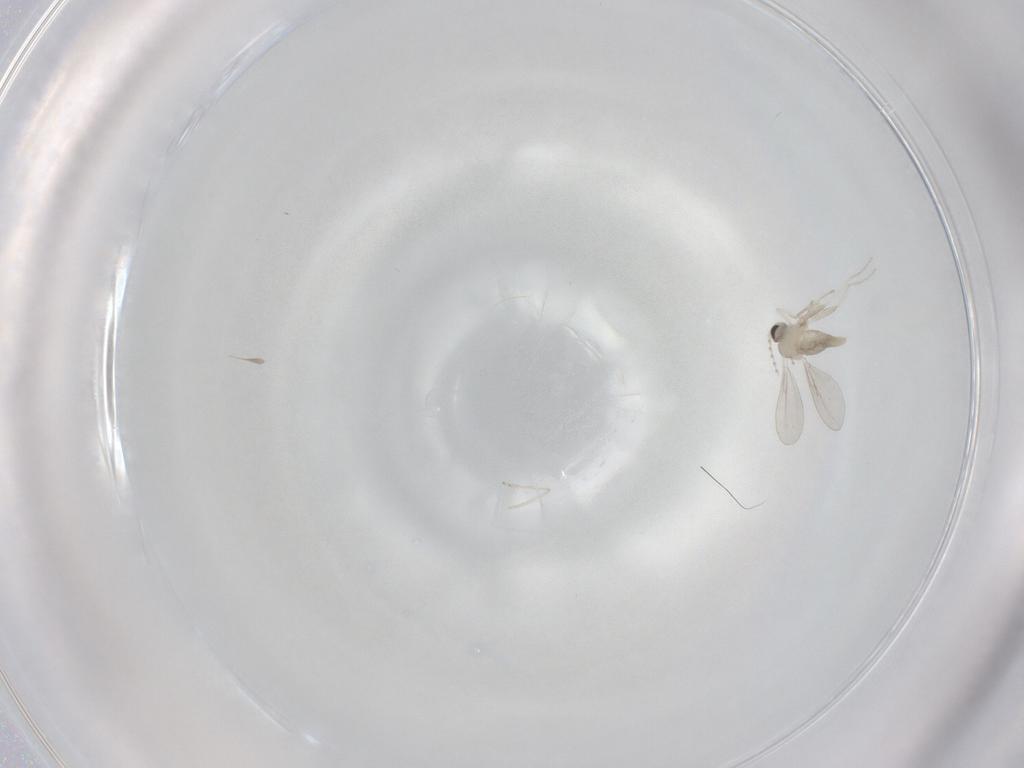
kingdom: Animalia
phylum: Arthropoda
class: Insecta
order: Diptera
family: Cecidomyiidae
